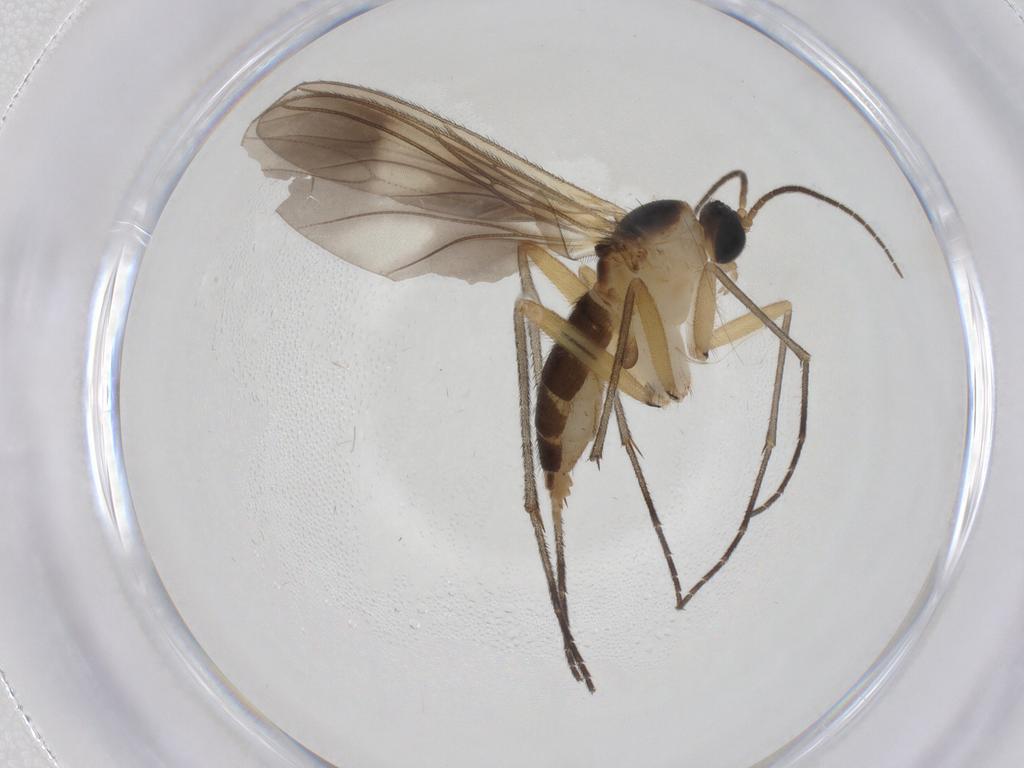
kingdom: Animalia
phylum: Arthropoda
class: Insecta
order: Diptera
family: Sciaridae
